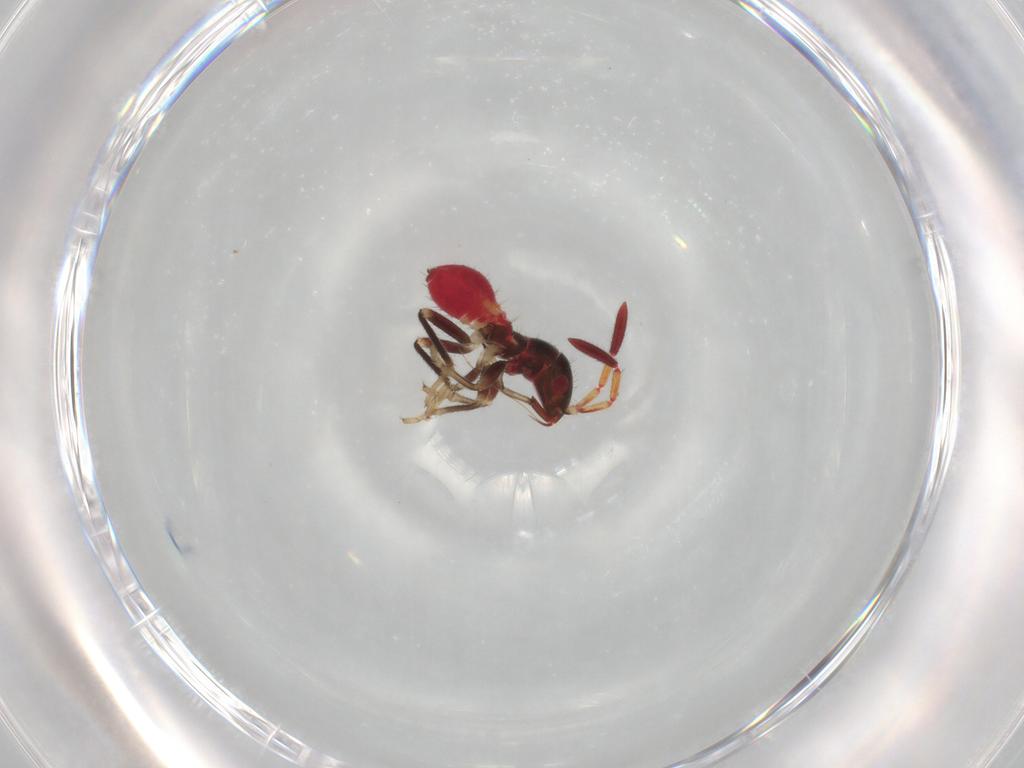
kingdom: Animalia
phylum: Arthropoda
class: Insecta
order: Hemiptera
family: Rhyparochromidae
